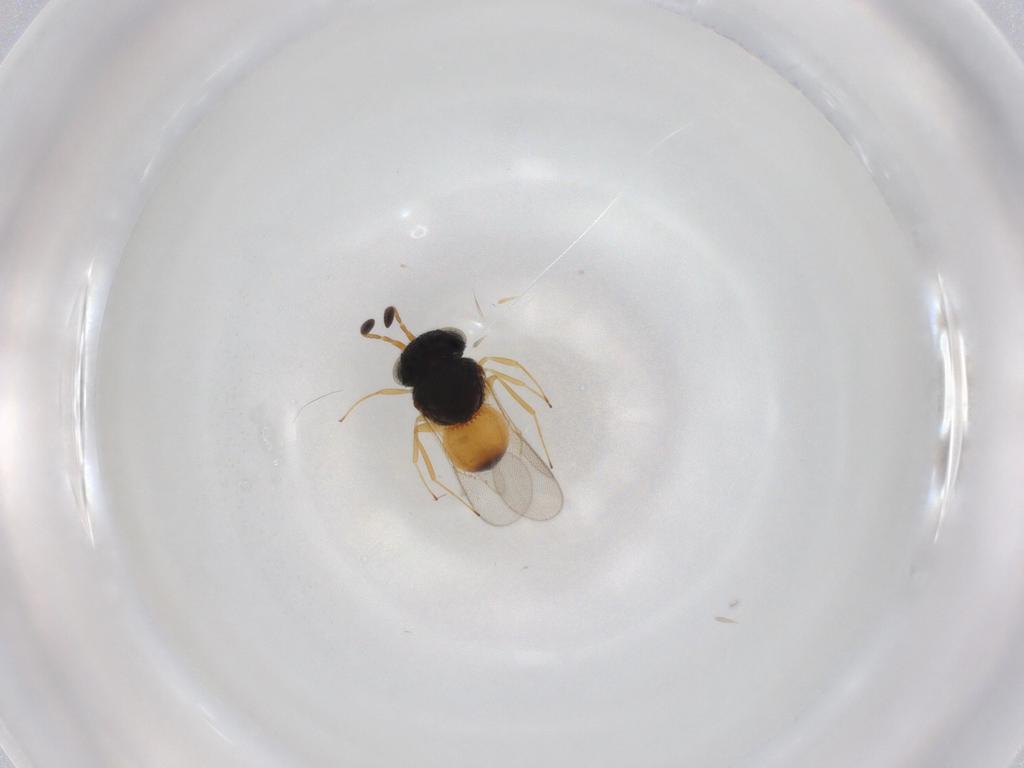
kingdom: Animalia
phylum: Arthropoda
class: Insecta
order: Hymenoptera
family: Scelionidae
